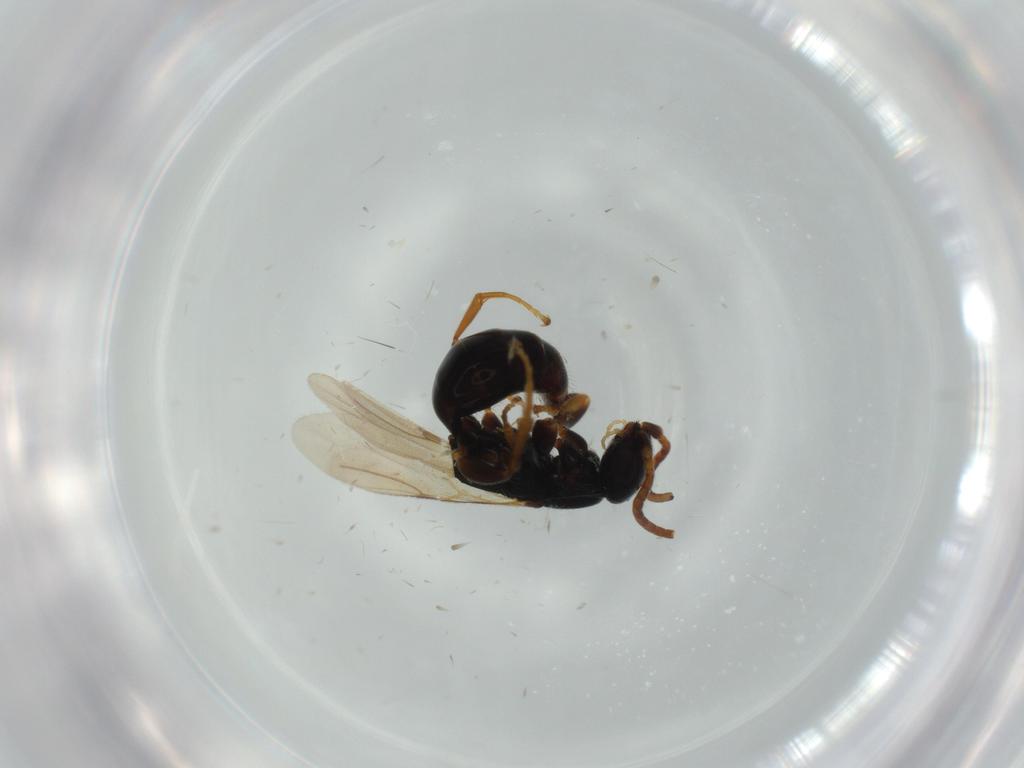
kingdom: Animalia
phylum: Arthropoda
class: Insecta
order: Hymenoptera
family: Bethylidae
